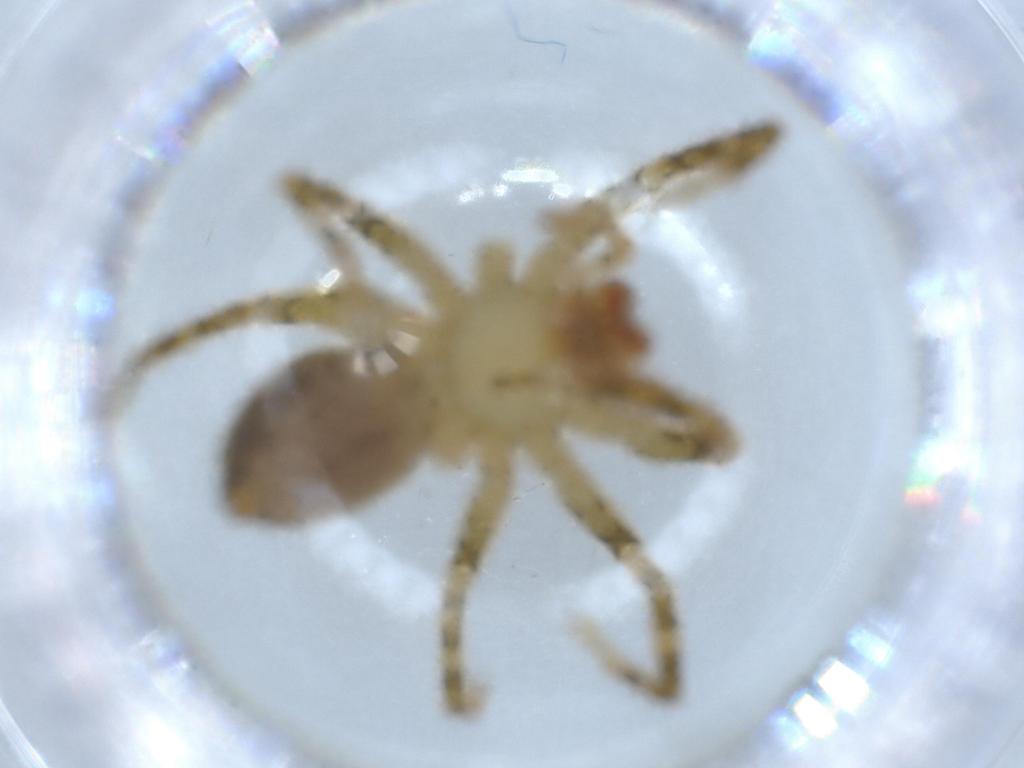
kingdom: Animalia
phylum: Arthropoda
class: Arachnida
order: Araneae
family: Trechaleidae
